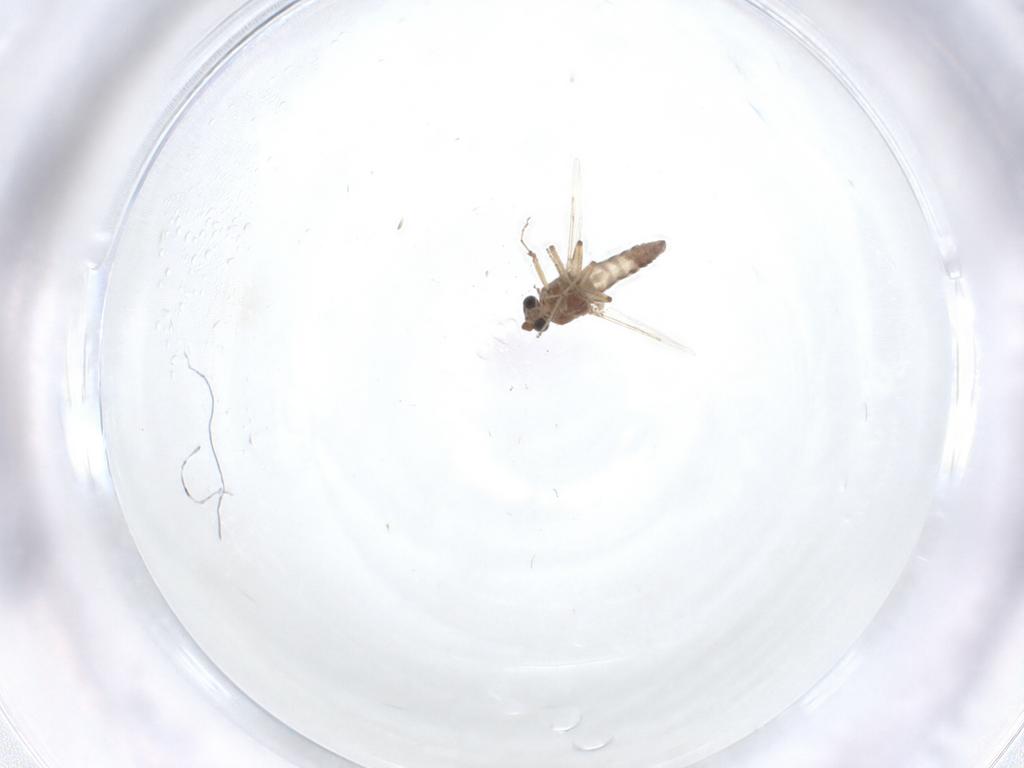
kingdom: Animalia
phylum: Arthropoda
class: Insecta
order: Diptera
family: Ceratopogonidae
